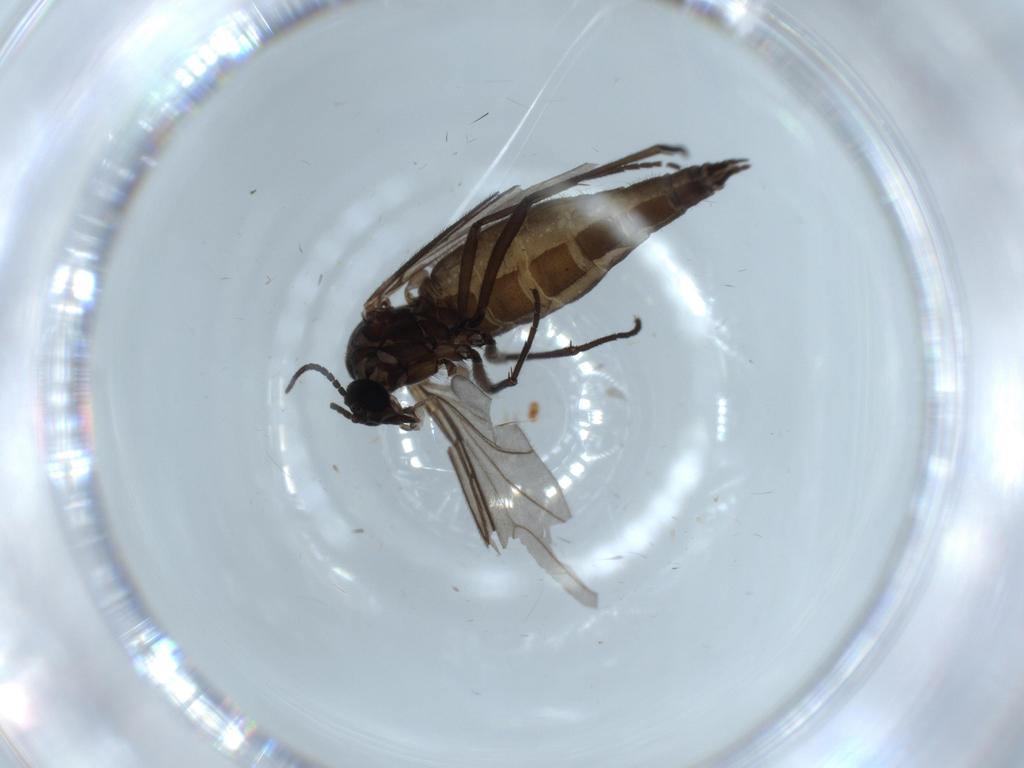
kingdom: Animalia
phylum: Arthropoda
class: Insecta
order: Diptera
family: Sciaridae
